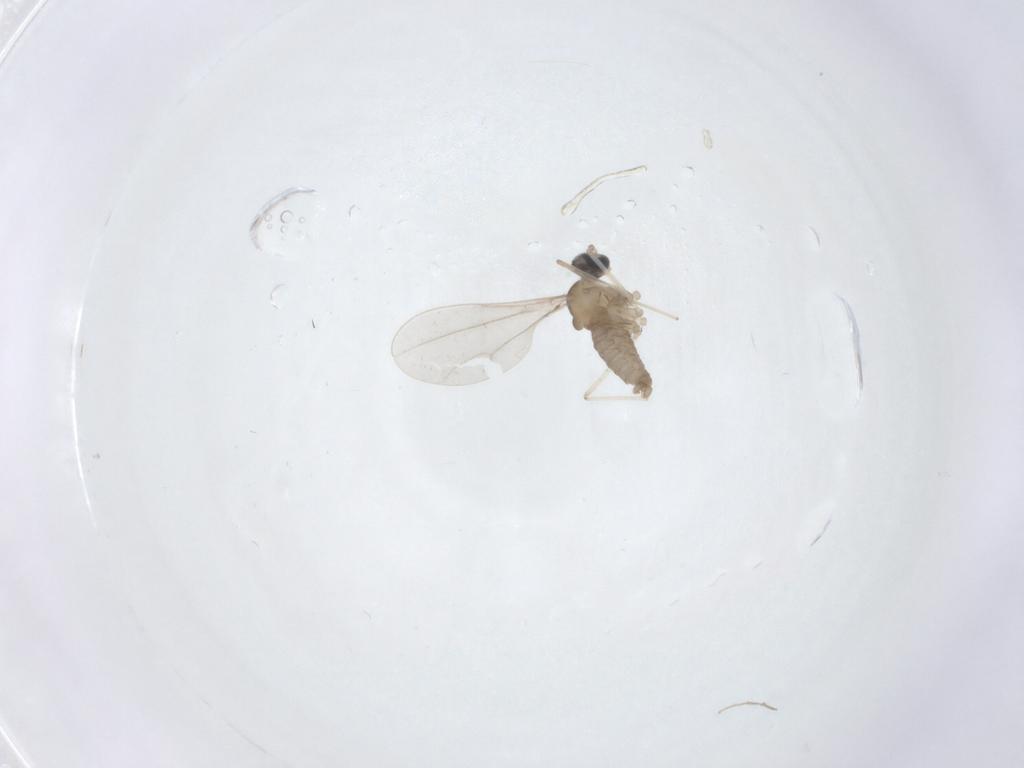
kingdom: Animalia
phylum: Arthropoda
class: Insecta
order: Diptera
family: Cecidomyiidae
